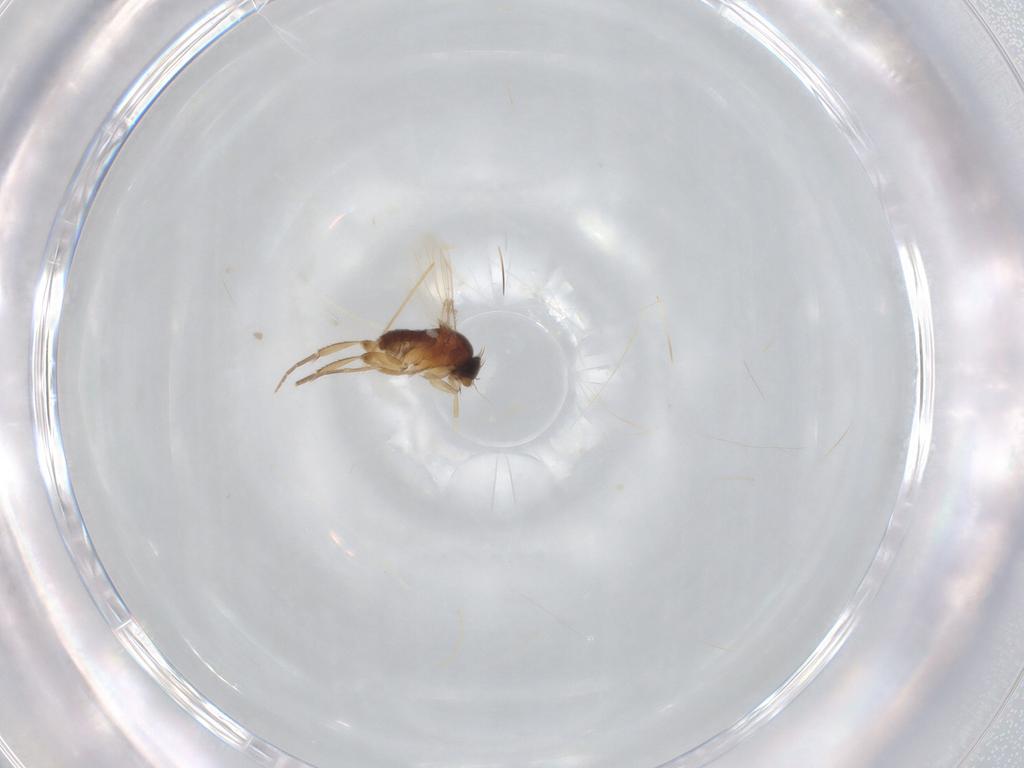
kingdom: Animalia
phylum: Arthropoda
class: Insecta
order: Diptera
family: Phoridae
